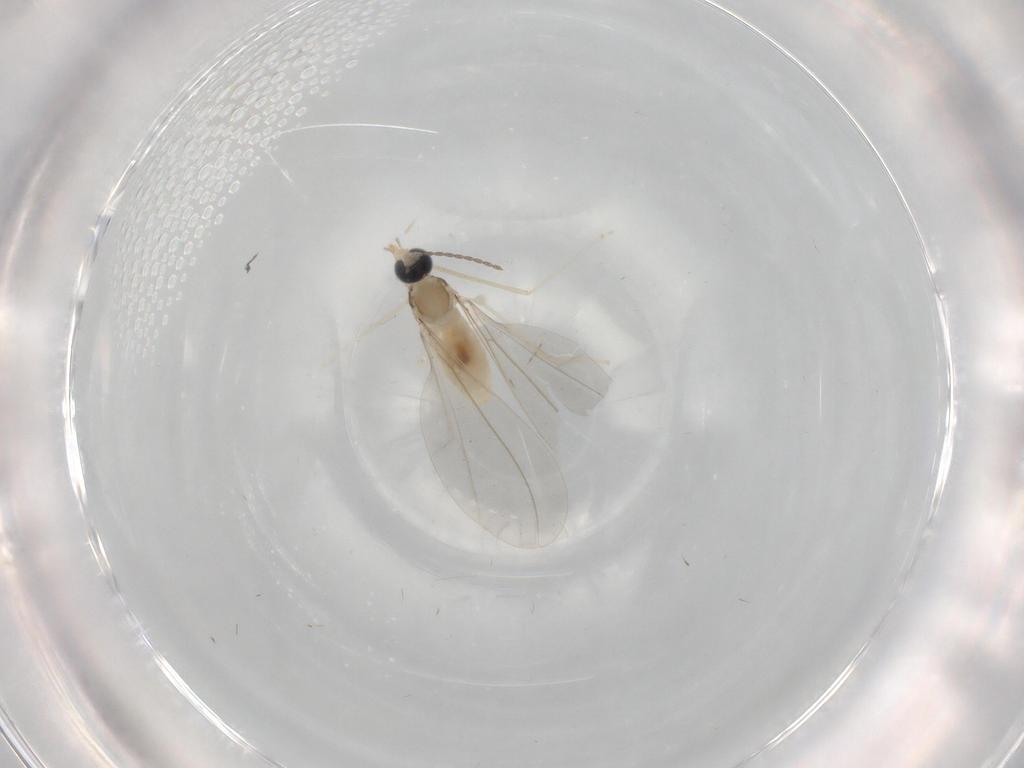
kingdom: Animalia
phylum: Arthropoda
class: Insecta
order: Diptera
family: Cecidomyiidae
